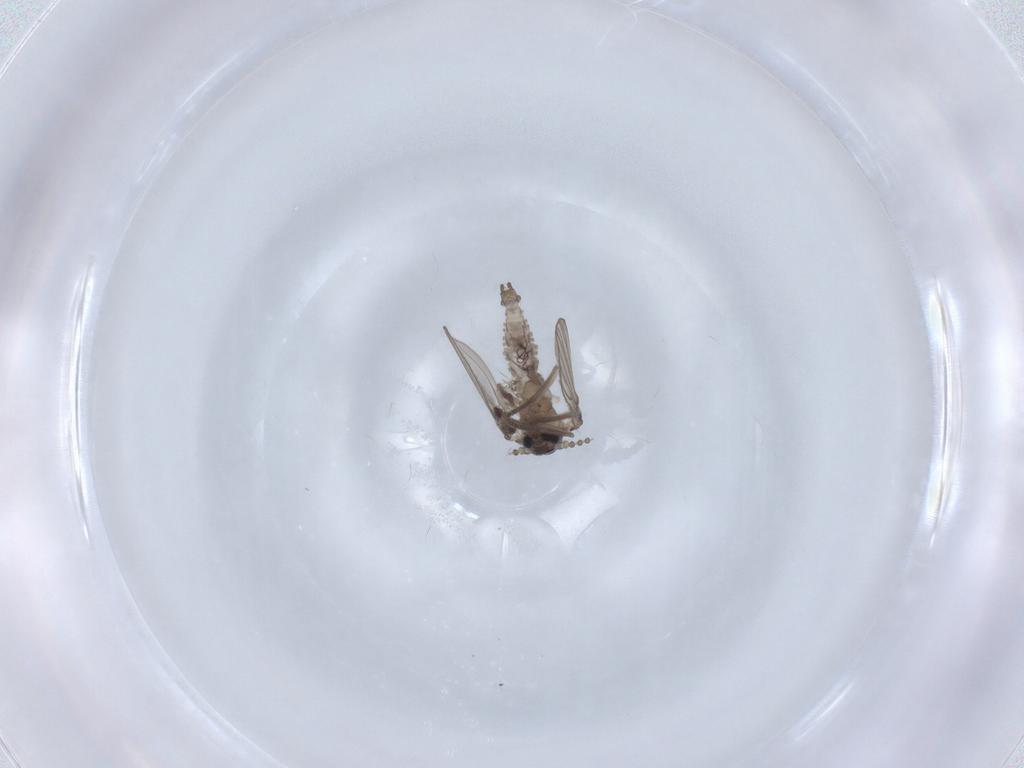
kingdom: Animalia
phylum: Arthropoda
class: Insecta
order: Diptera
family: Psychodidae
